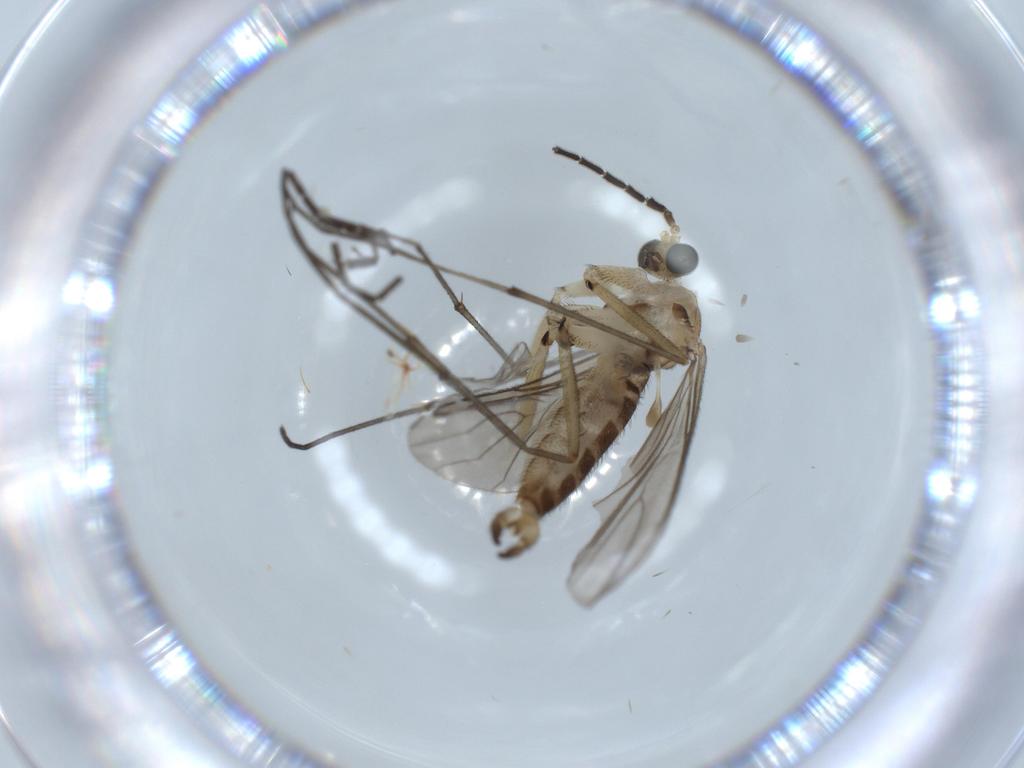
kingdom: Animalia
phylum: Arthropoda
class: Insecta
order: Diptera
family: Sciaridae
